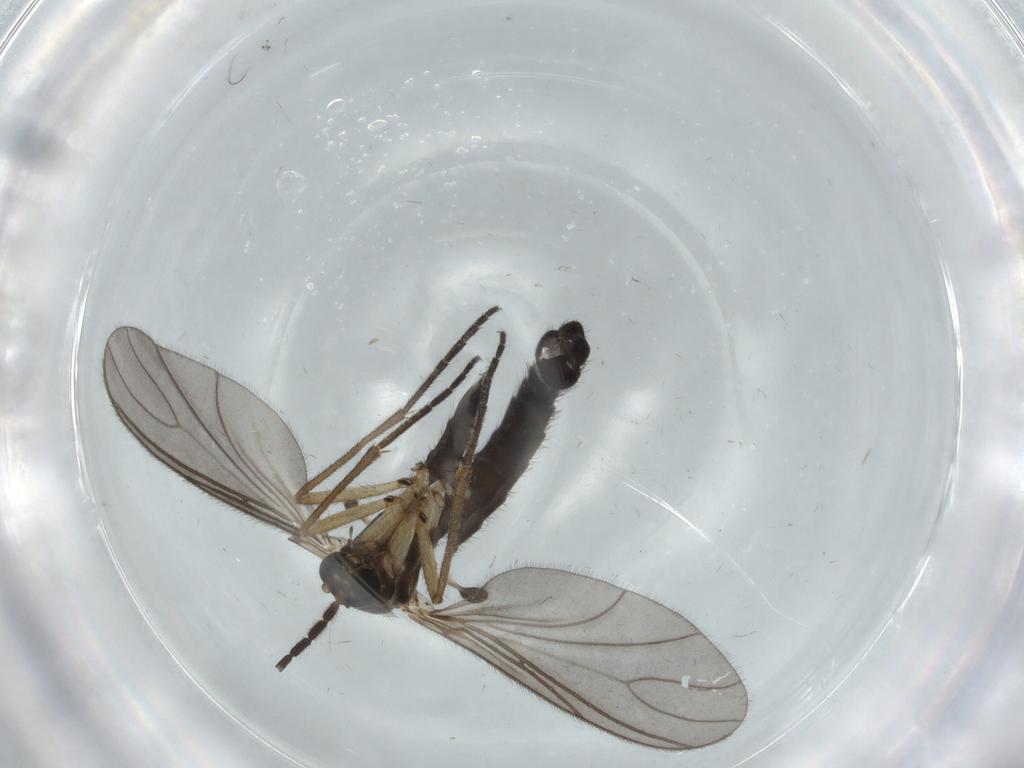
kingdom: Animalia
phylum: Arthropoda
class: Insecta
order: Diptera
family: Sciaridae
